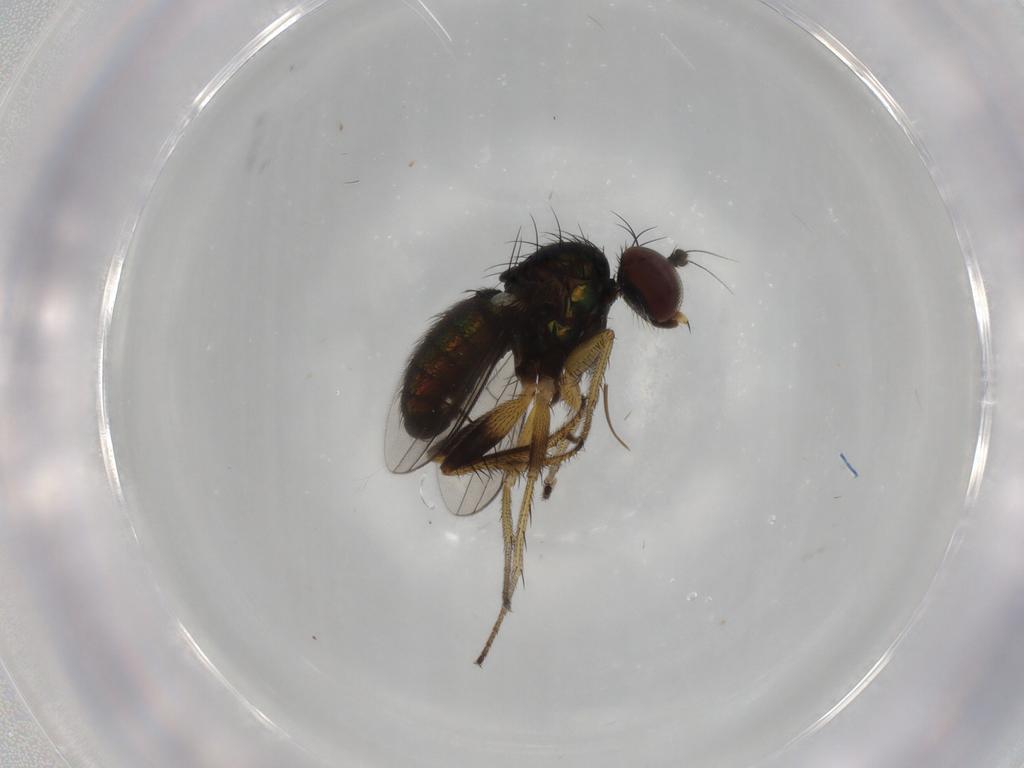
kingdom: Animalia
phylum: Arthropoda
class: Insecta
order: Diptera
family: Dolichopodidae
